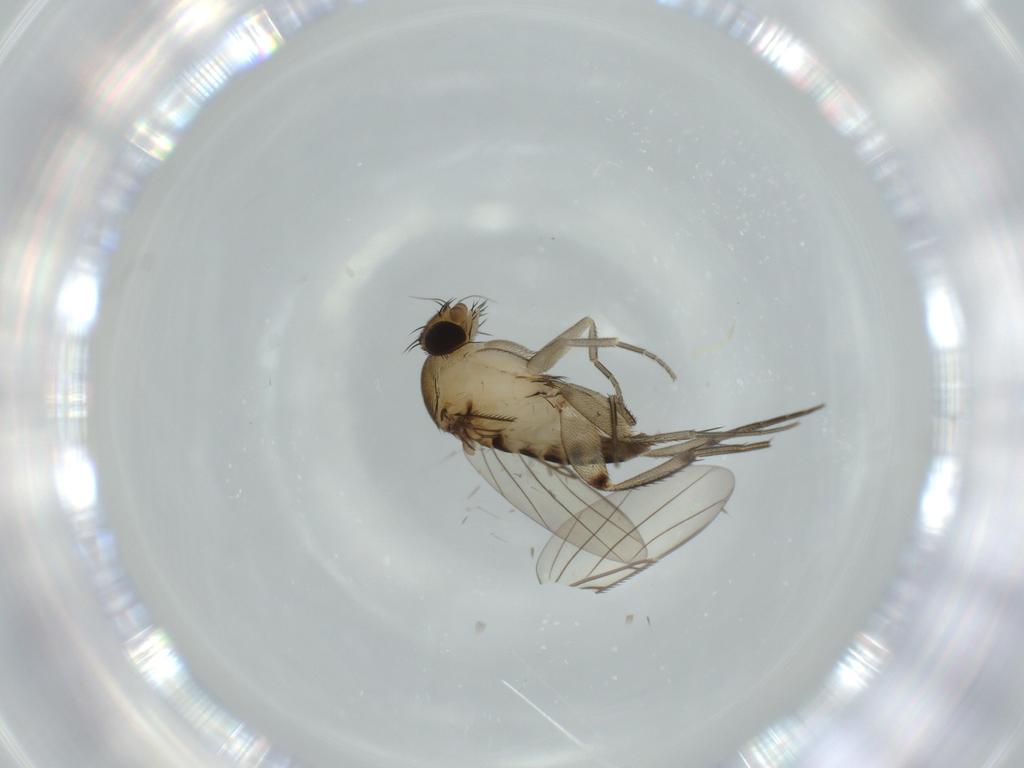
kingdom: Animalia
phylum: Arthropoda
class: Insecta
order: Diptera
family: Phoridae
